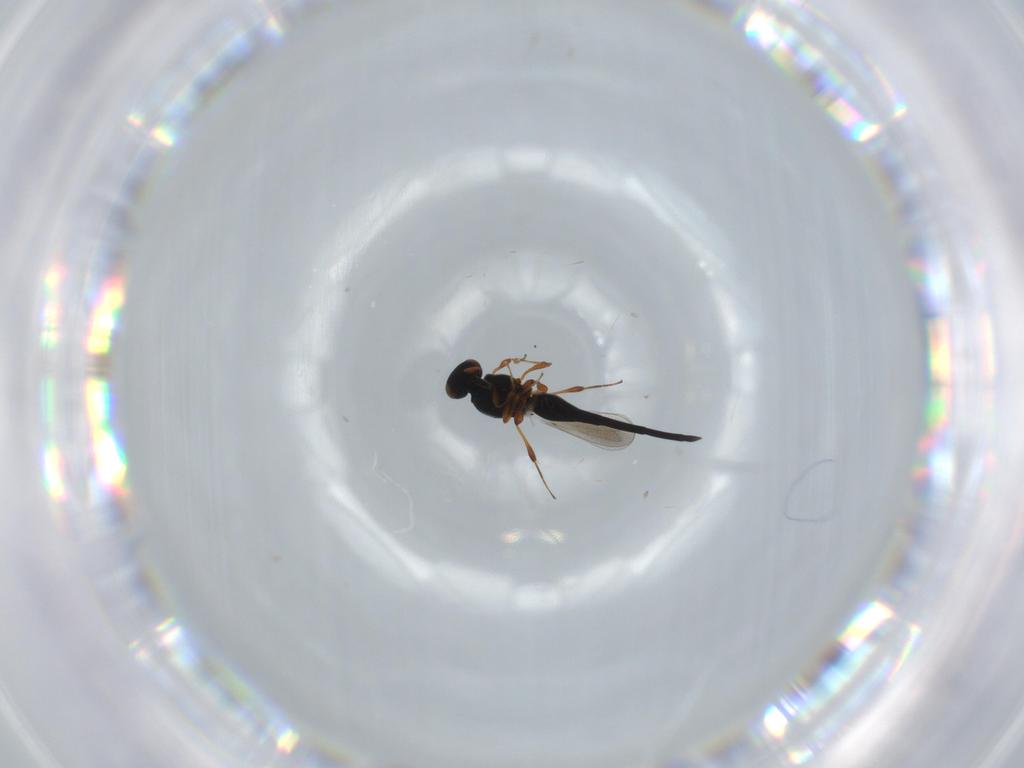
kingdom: Animalia
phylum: Arthropoda
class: Insecta
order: Hymenoptera
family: Platygastridae
